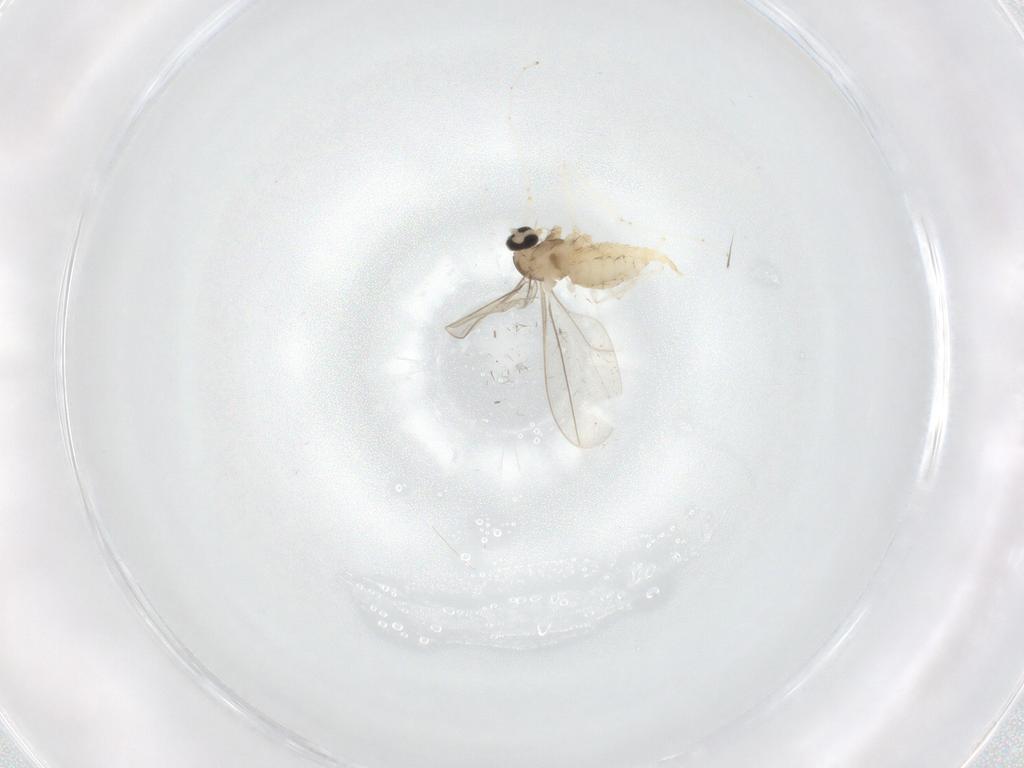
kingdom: Animalia
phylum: Arthropoda
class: Insecta
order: Diptera
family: Cecidomyiidae
